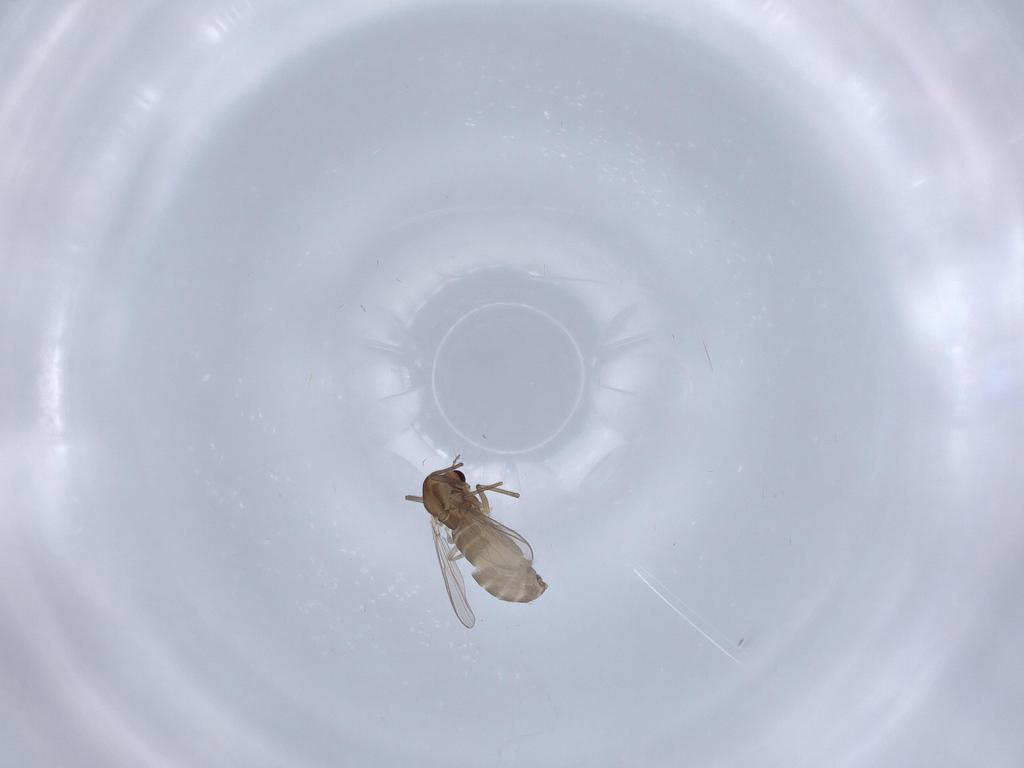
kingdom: Animalia
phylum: Arthropoda
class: Insecta
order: Diptera
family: Chironomidae
